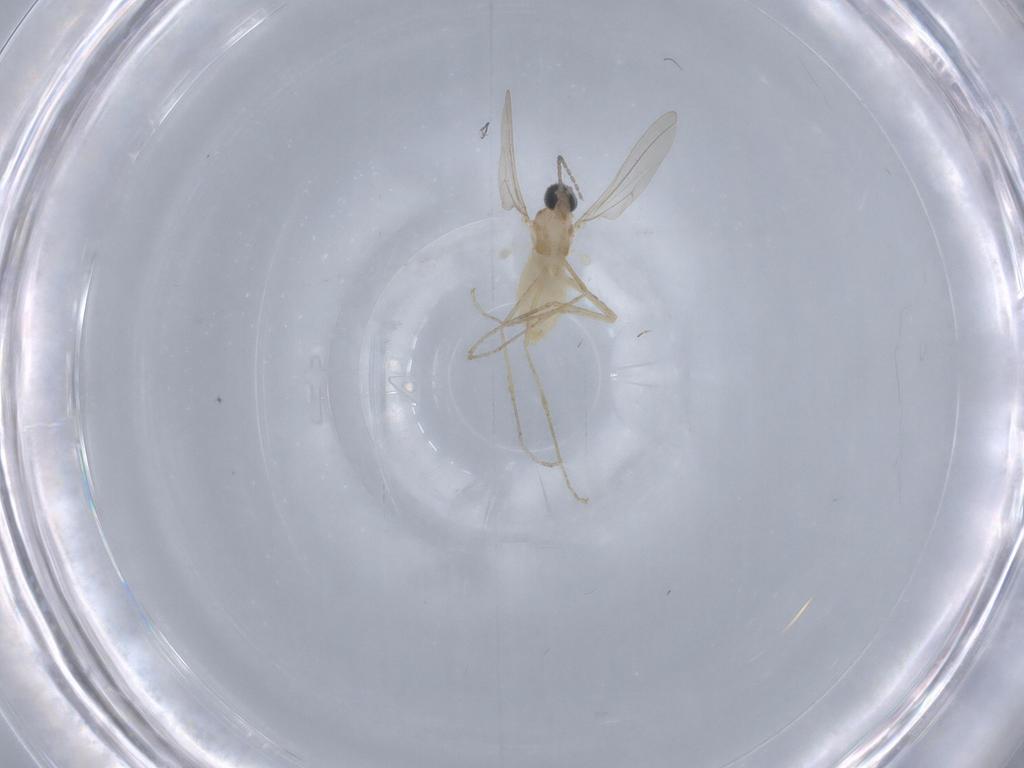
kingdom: Animalia
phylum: Arthropoda
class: Insecta
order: Diptera
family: Cecidomyiidae
